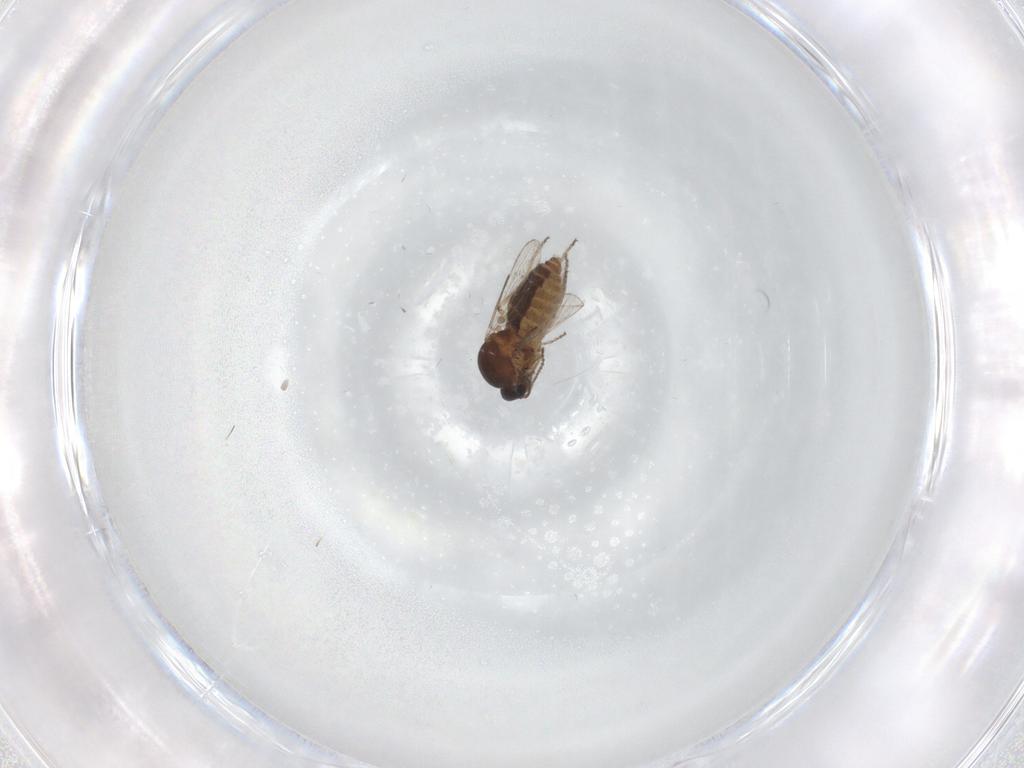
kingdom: Animalia
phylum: Arthropoda
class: Insecta
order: Diptera
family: Ceratopogonidae
